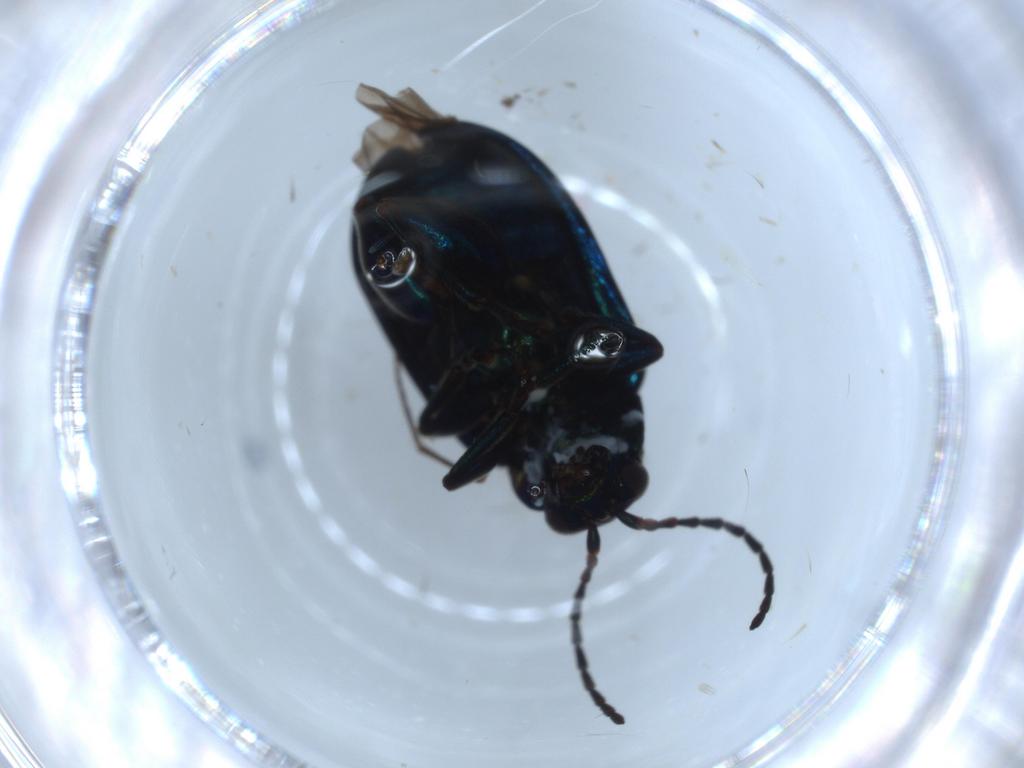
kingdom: Animalia
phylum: Arthropoda
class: Insecta
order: Coleoptera
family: Chrysomelidae
